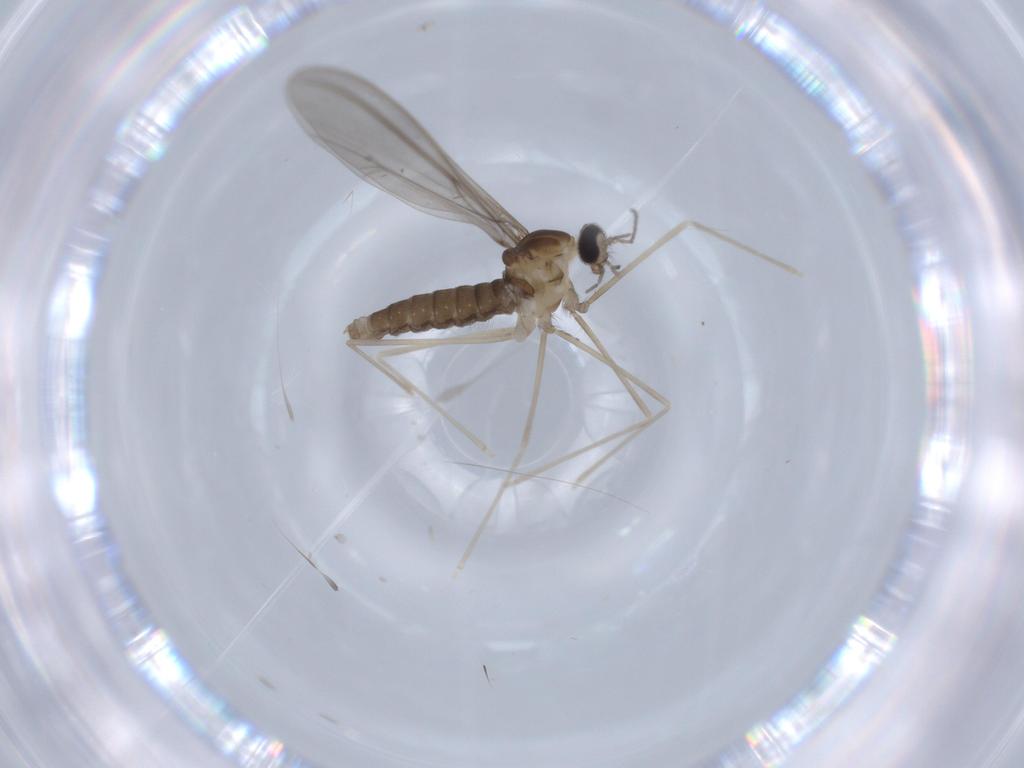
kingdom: Animalia
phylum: Arthropoda
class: Insecta
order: Diptera
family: Cecidomyiidae
